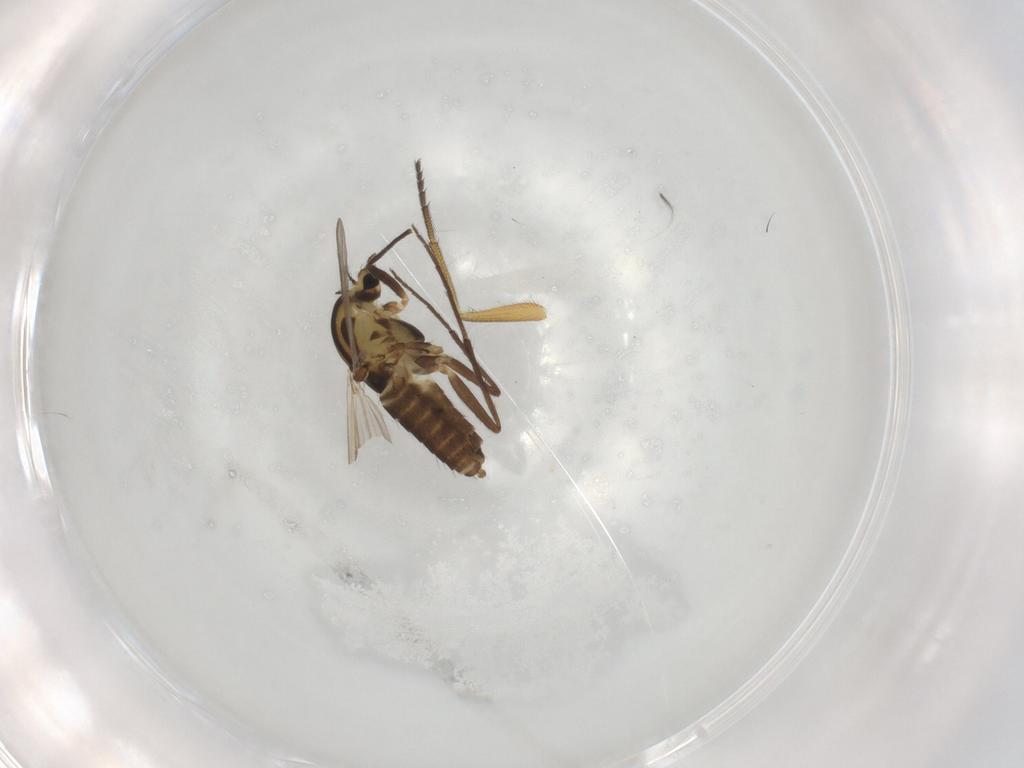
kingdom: Animalia
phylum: Arthropoda
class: Insecta
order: Diptera
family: Chironomidae
